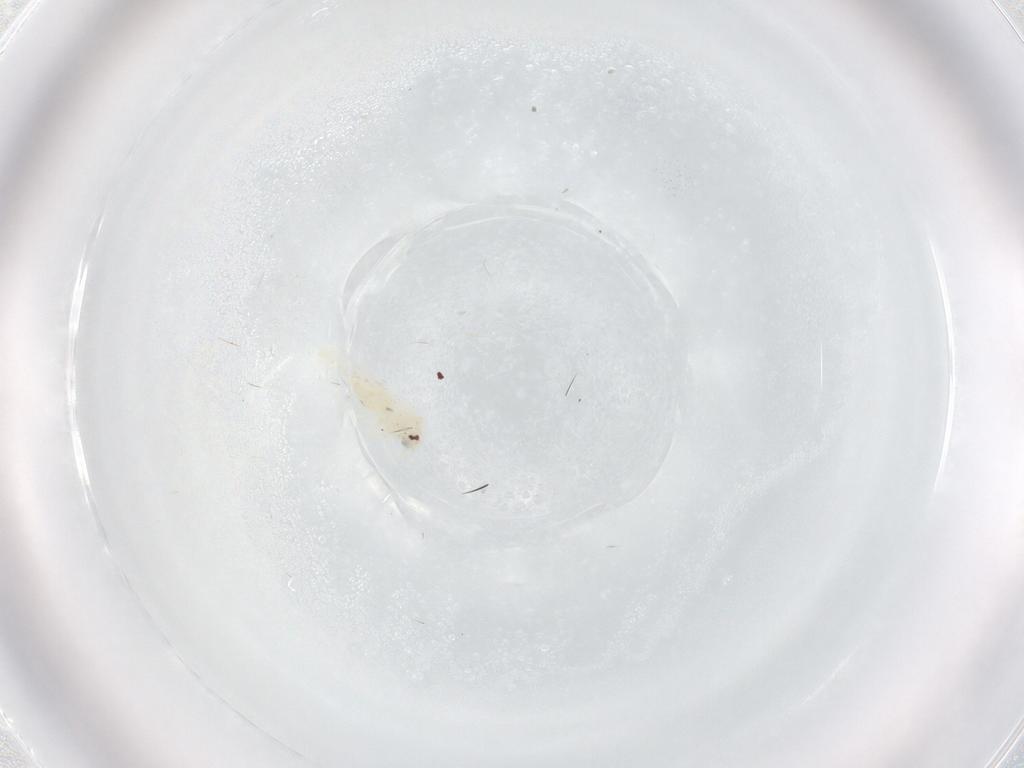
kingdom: Animalia
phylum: Arthropoda
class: Insecta
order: Hemiptera
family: Aleyrodidae
